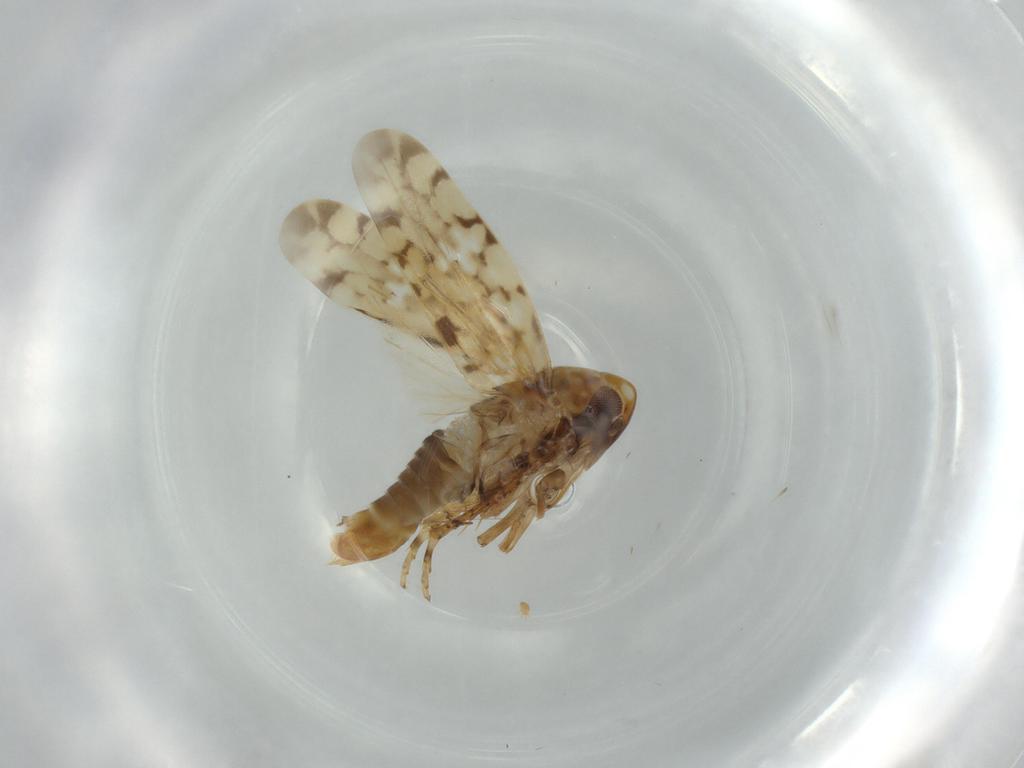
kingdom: Animalia
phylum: Arthropoda
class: Insecta
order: Hemiptera
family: Cicadellidae
